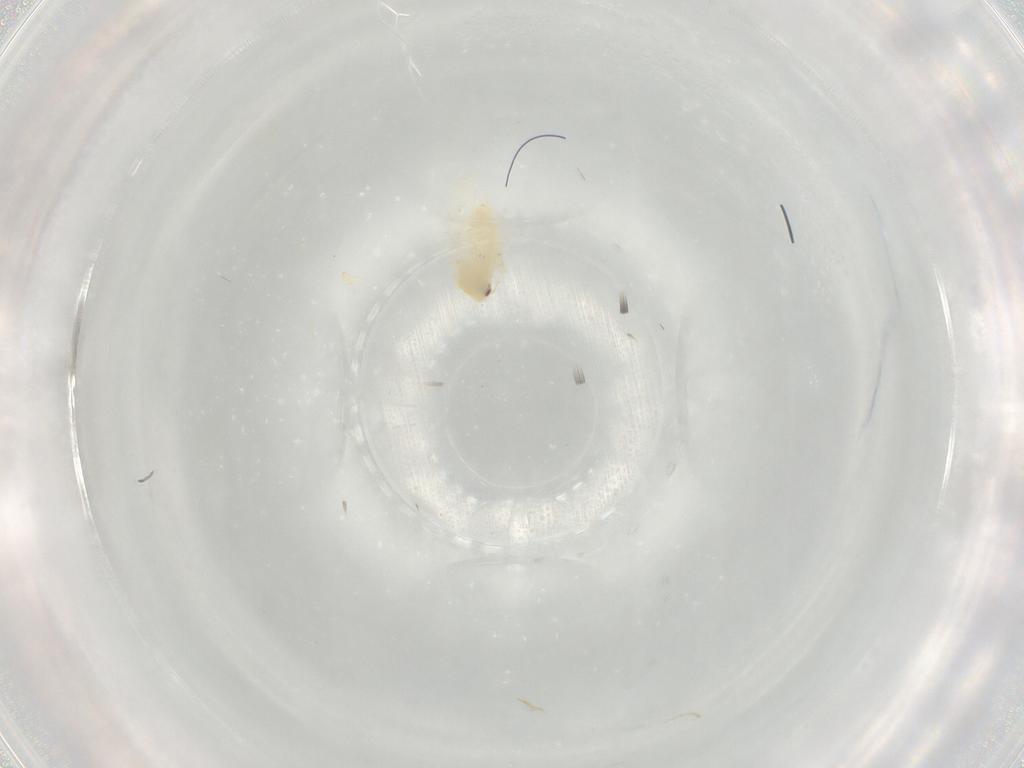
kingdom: Animalia
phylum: Arthropoda
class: Insecta
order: Hemiptera
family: Aleyrodidae
